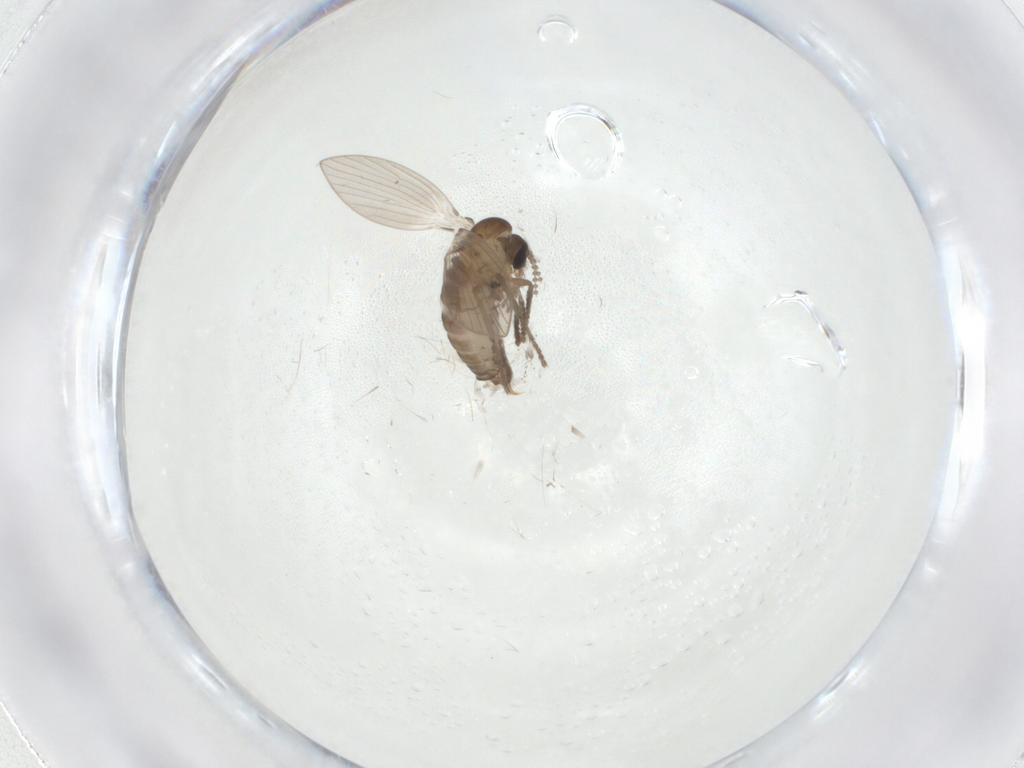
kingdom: Animalia
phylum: Arthropoda
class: Insecta
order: Diptera
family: Psychodidae
